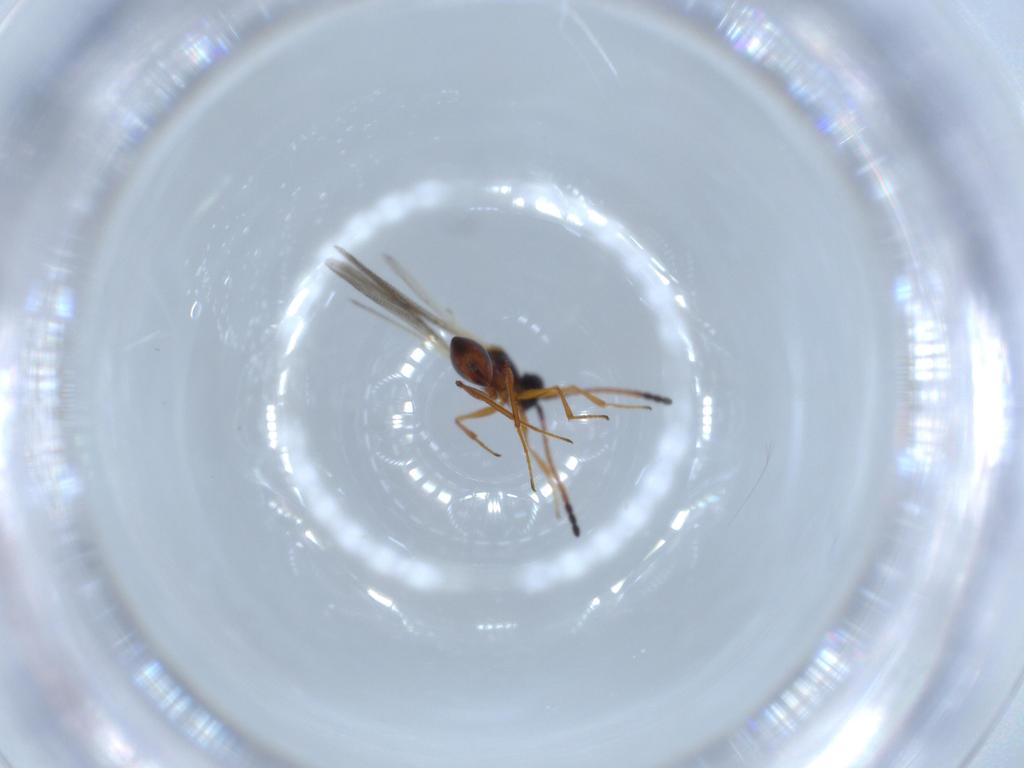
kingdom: Animalia
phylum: Arthropoda
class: Insecta
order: Hymenoptera
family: Figitidae
